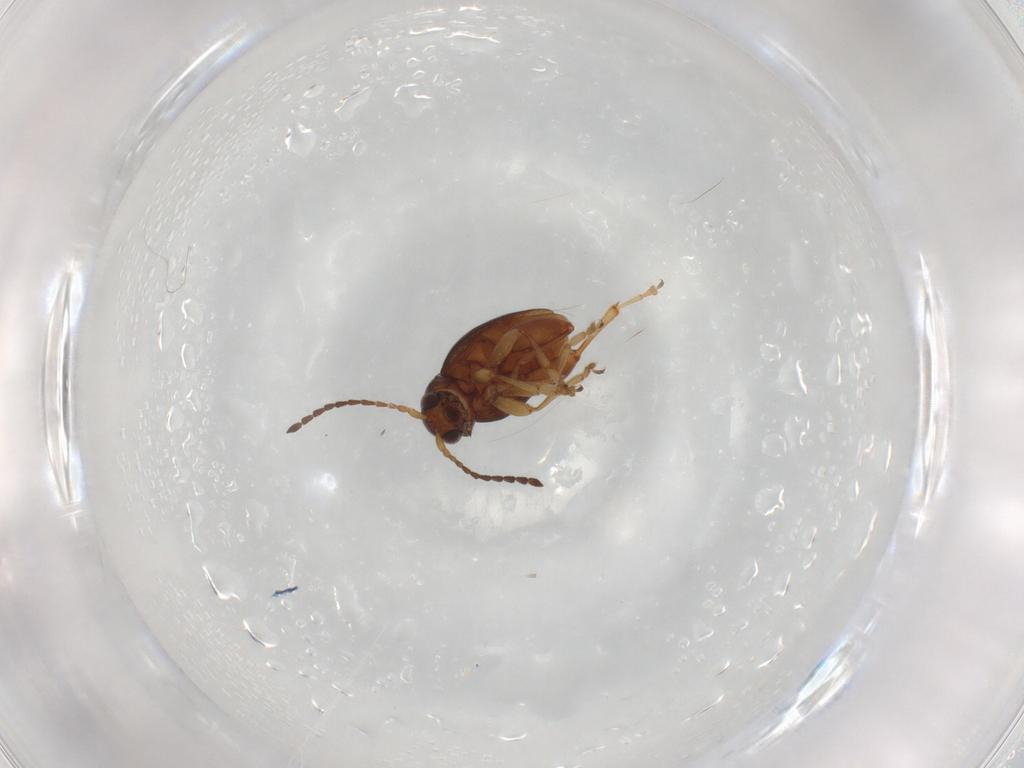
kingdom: Animalia
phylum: Arthropoda
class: Insecta
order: Coleoptera
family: Chrysomelidae
